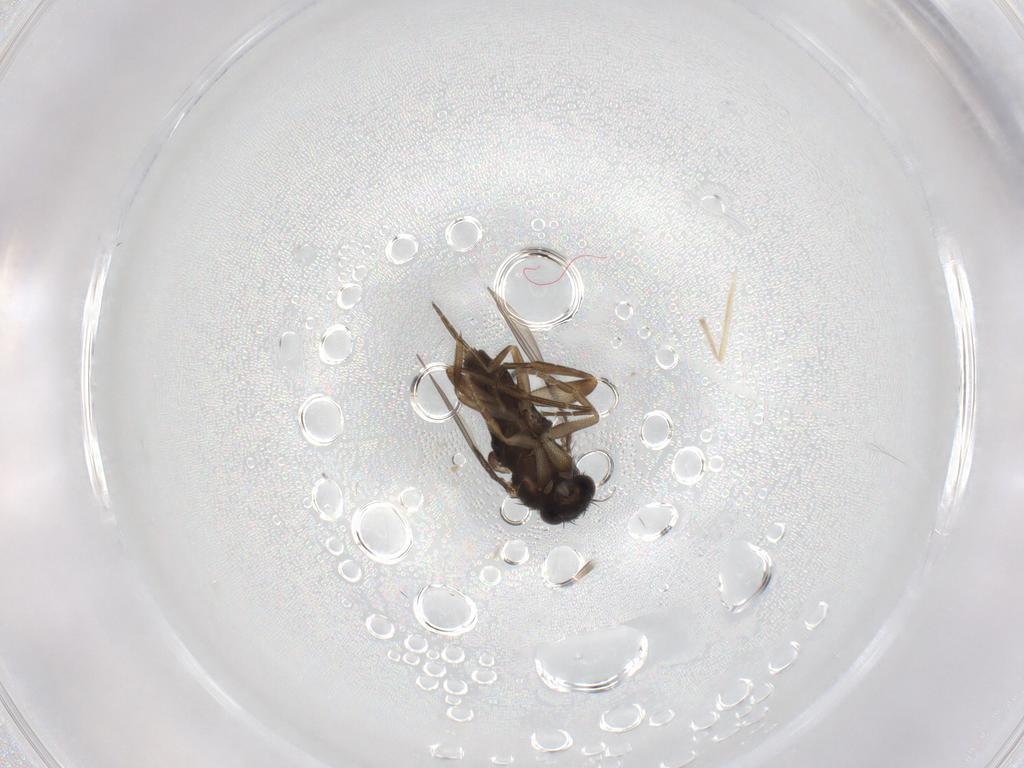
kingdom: Animalia
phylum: Arthropoda
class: Insecta
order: Diptera
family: Phoridae
